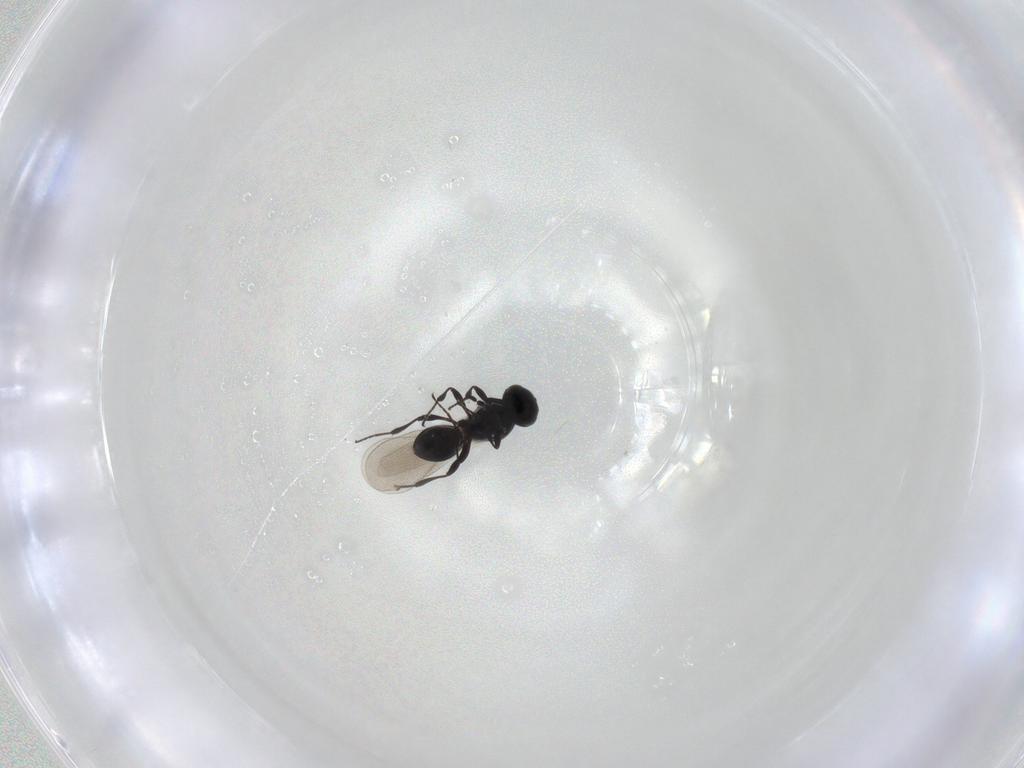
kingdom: Animalia
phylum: Arthropoda
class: Insecta
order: Hymenoptera
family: Platygastridae
